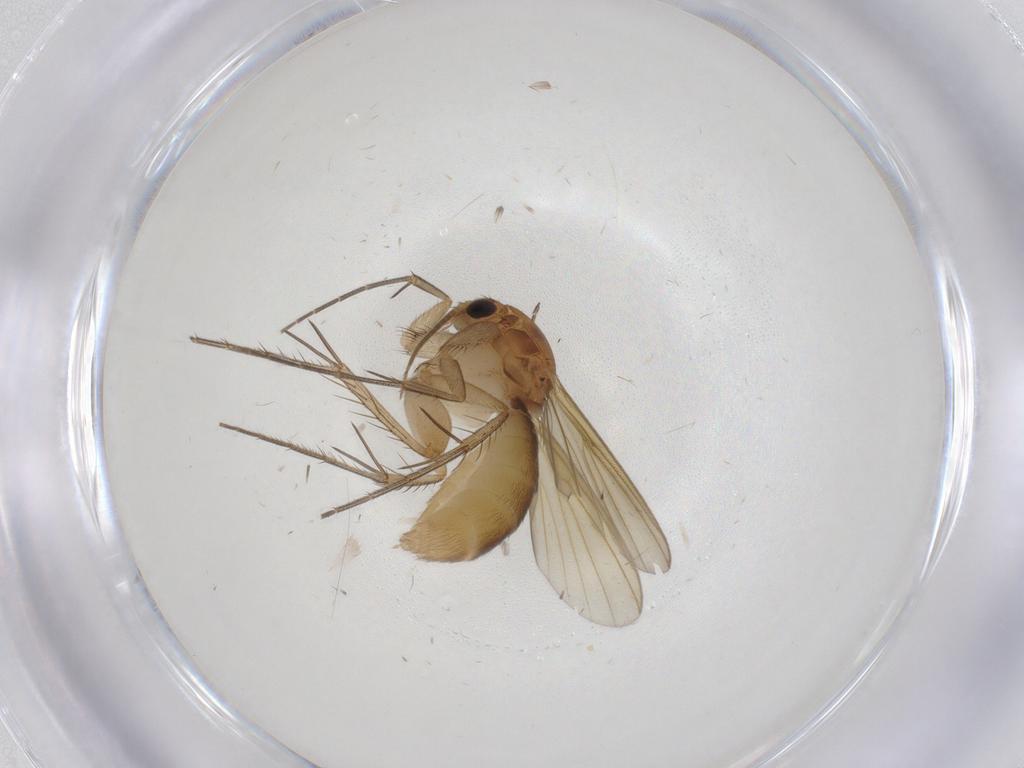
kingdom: Animalia
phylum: Arthropoda
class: Insecta
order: Diptera
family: Mycetophilidae
